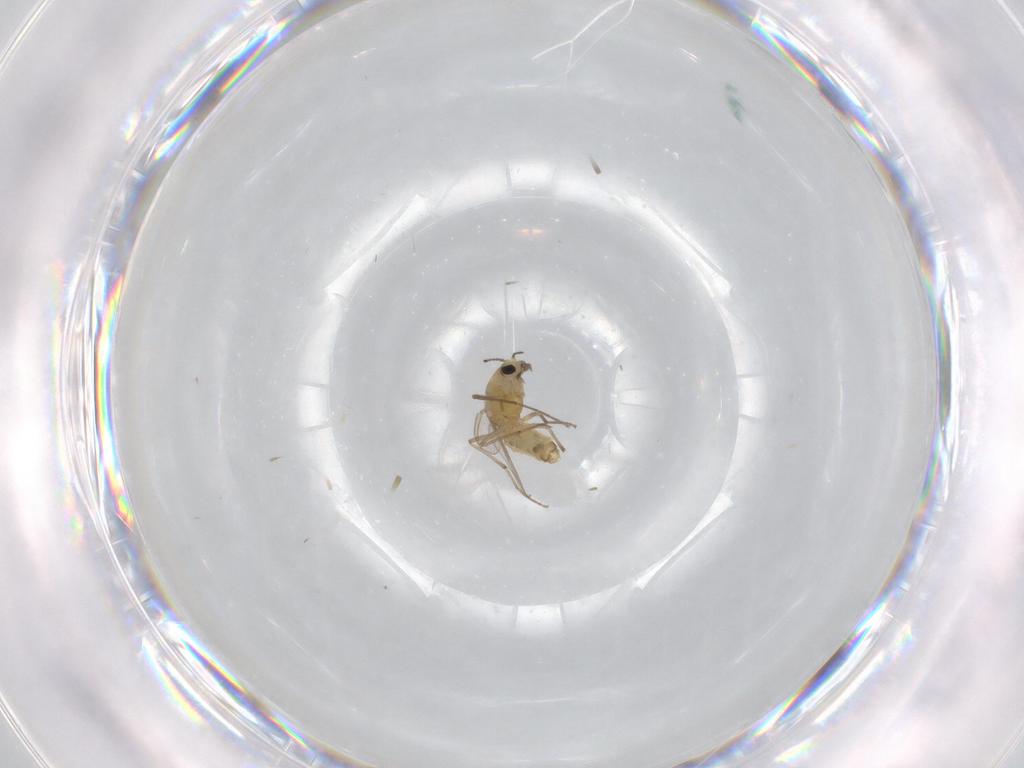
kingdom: Animalia
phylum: Arthropoda
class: Insecta
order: Diptera
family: Chironomidae
